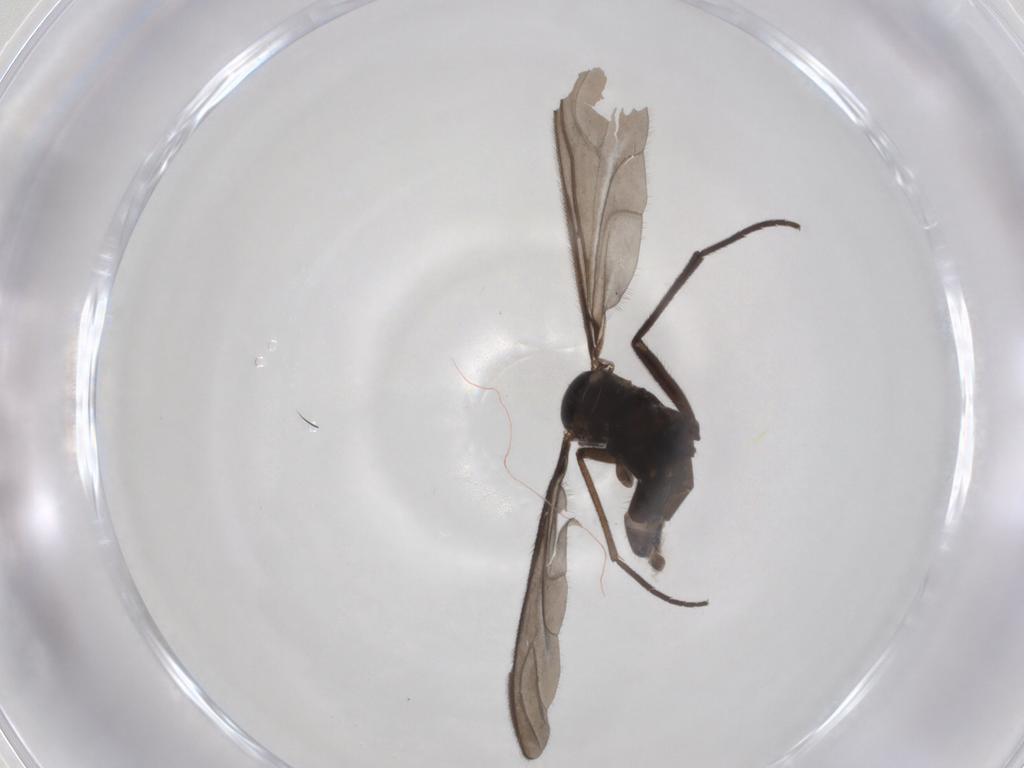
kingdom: Animalia
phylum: Arthropoda
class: Insecta
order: Diptera
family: Sciaridae
